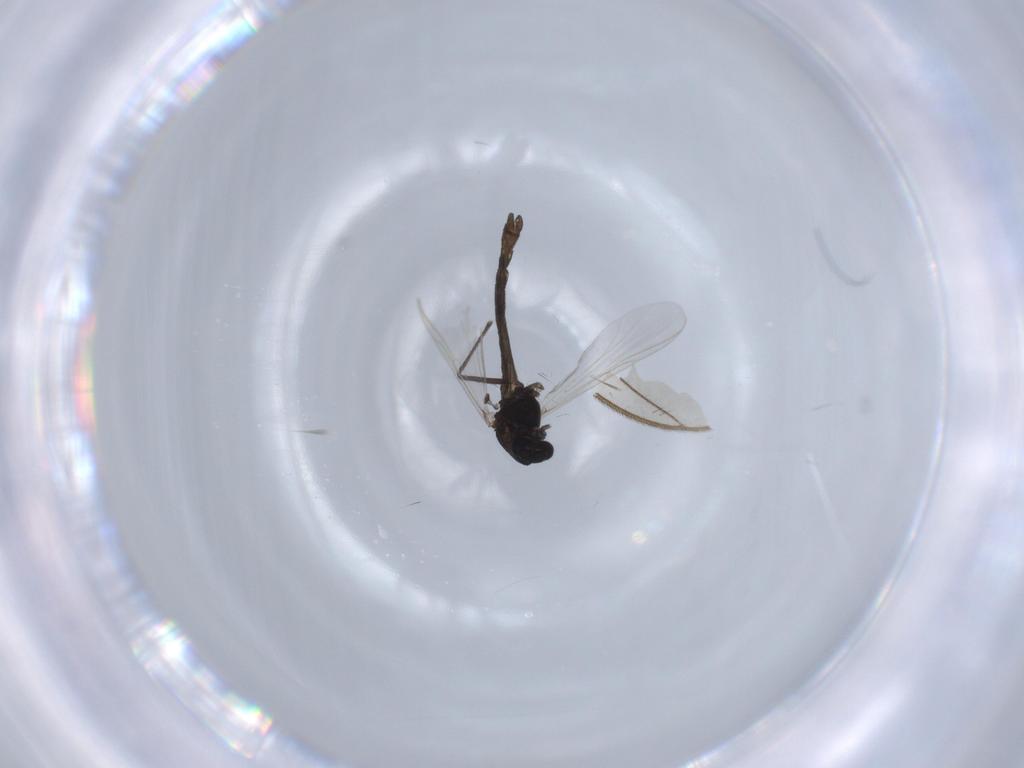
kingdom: Animalia
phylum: Arthropoda
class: Insecta
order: Diptera
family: Chironomidae
